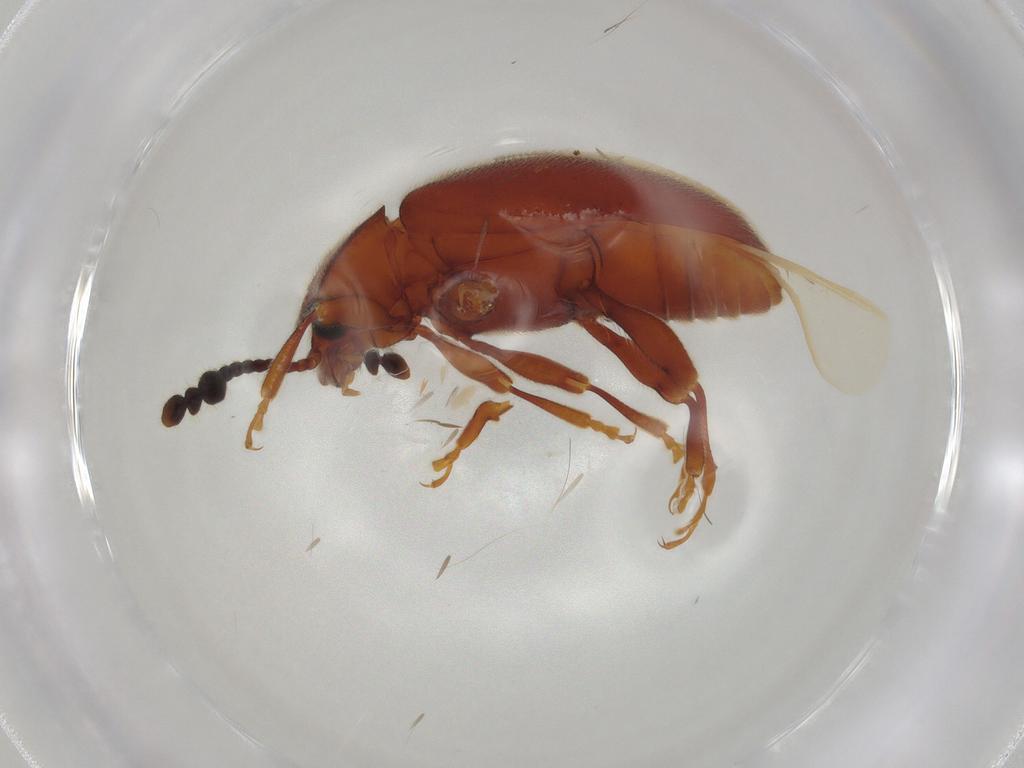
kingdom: Animalia
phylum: Arthropoda
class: Insecta
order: Coleoptera
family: Endomychidae
